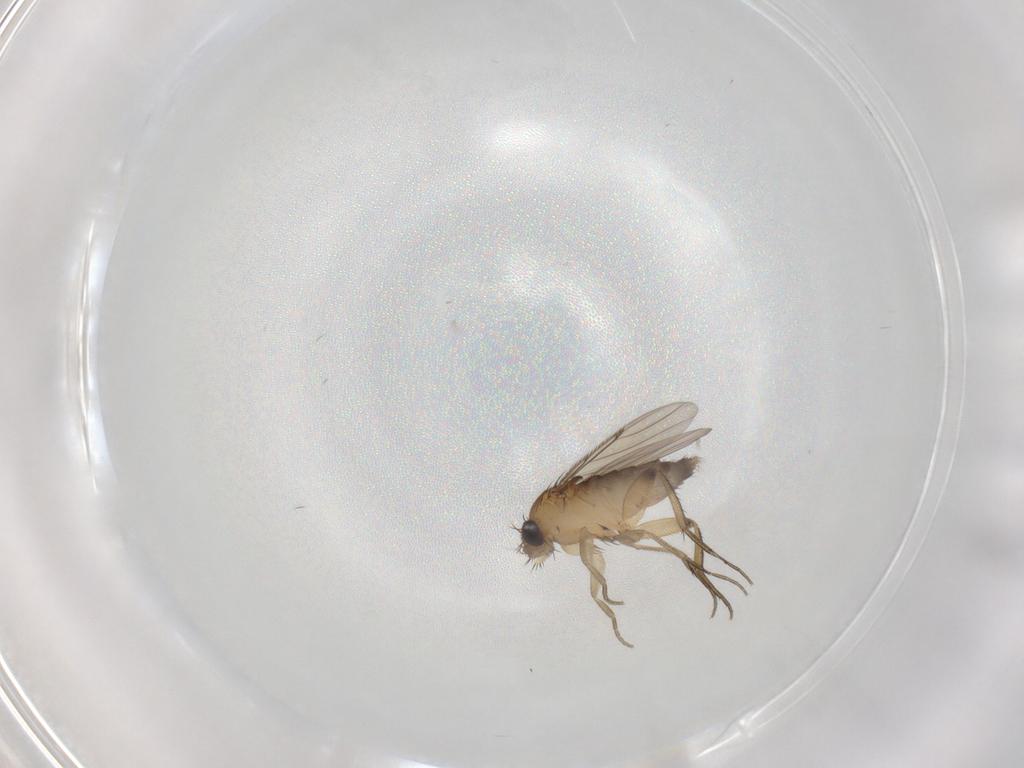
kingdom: Animalia
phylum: Arthropoda
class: Insecta
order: Diptera
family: Phoridae
